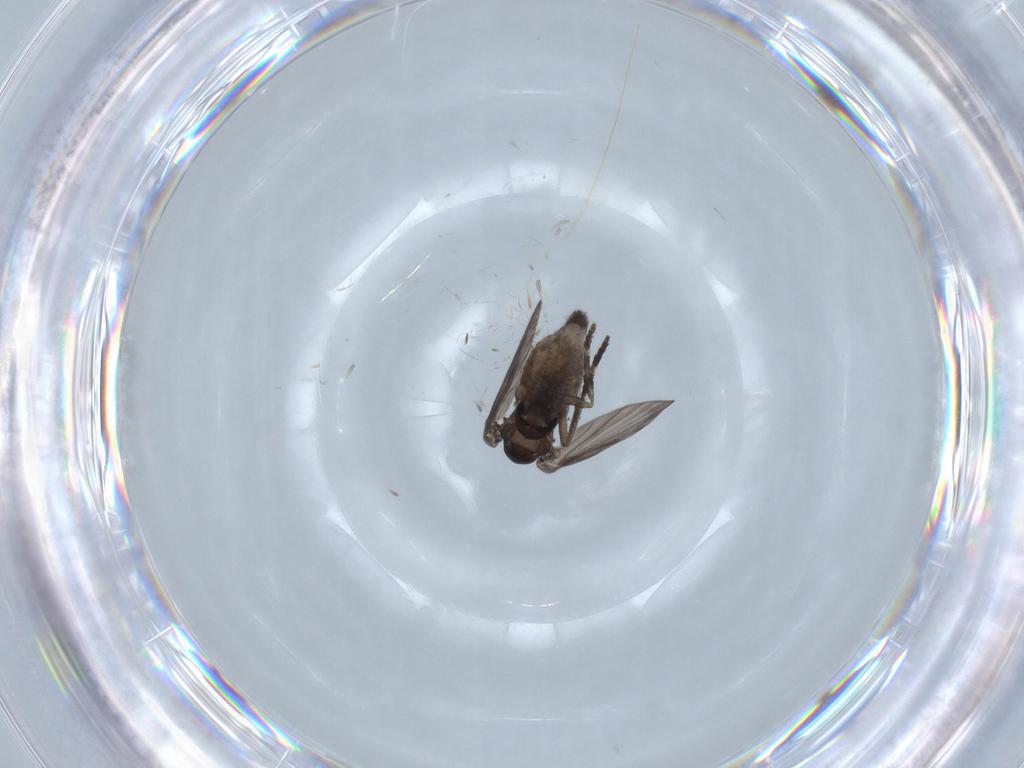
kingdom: Animalia
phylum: Arthropoda
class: Insecta
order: Diptera
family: Psychodidae
